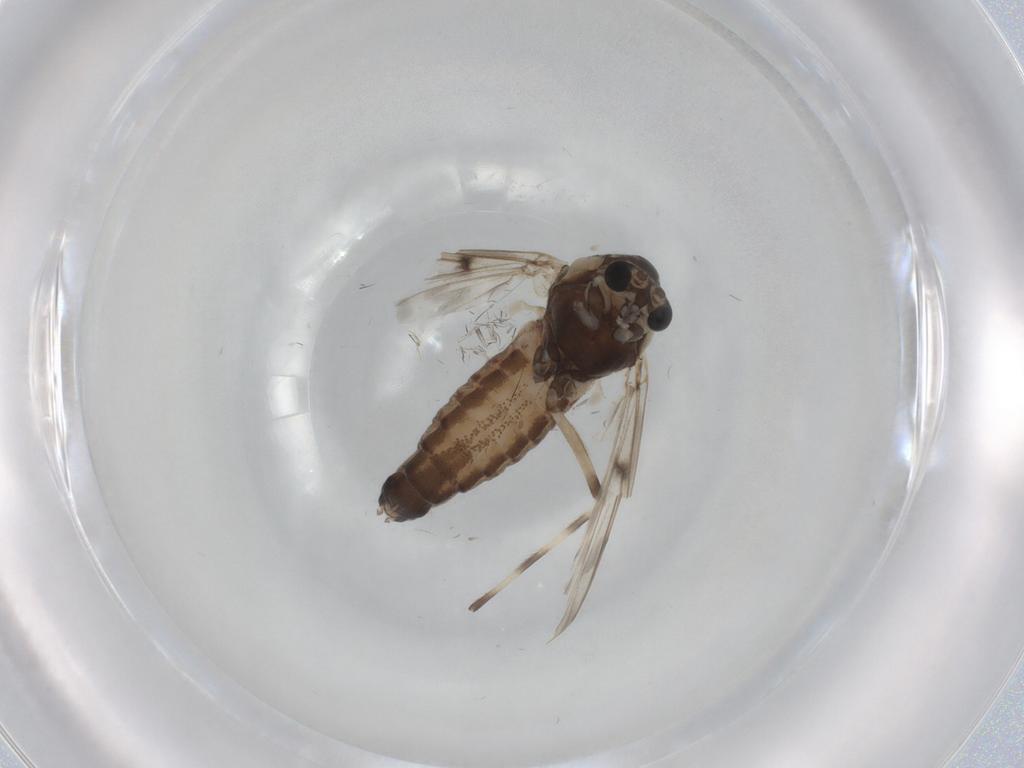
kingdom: Animalia
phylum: Arthropoda
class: Insecta
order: Diptera
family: Chironomidae
